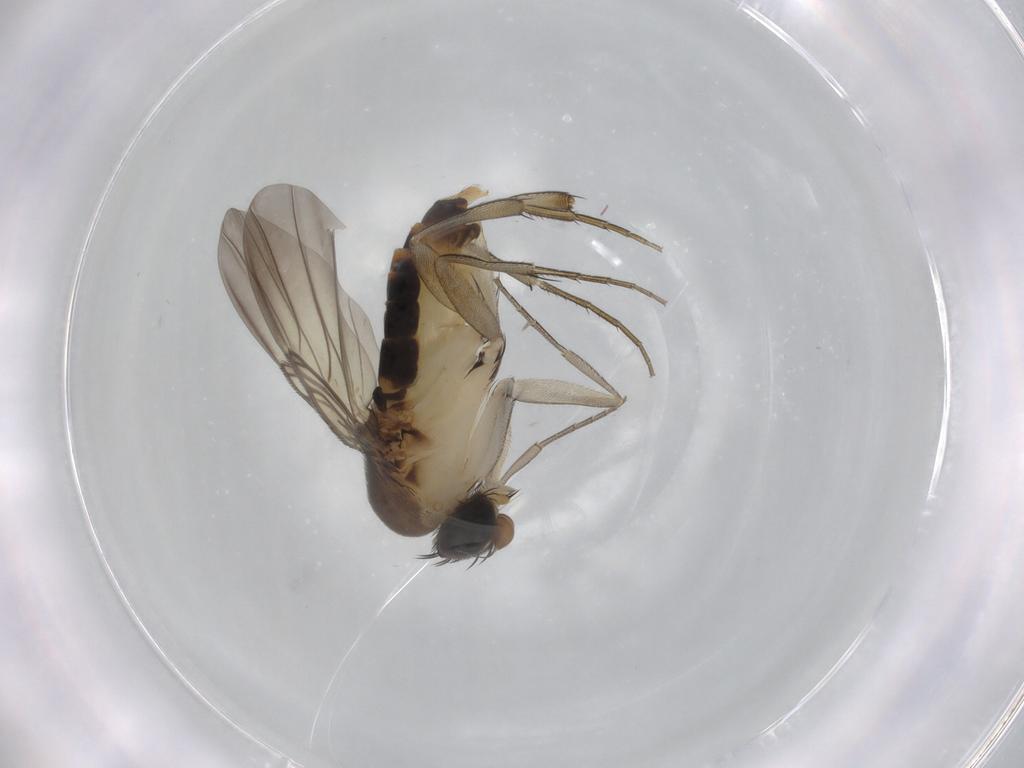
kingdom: Animalia
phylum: Arthropoda
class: Insecta
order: Diptera
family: Phoridae
